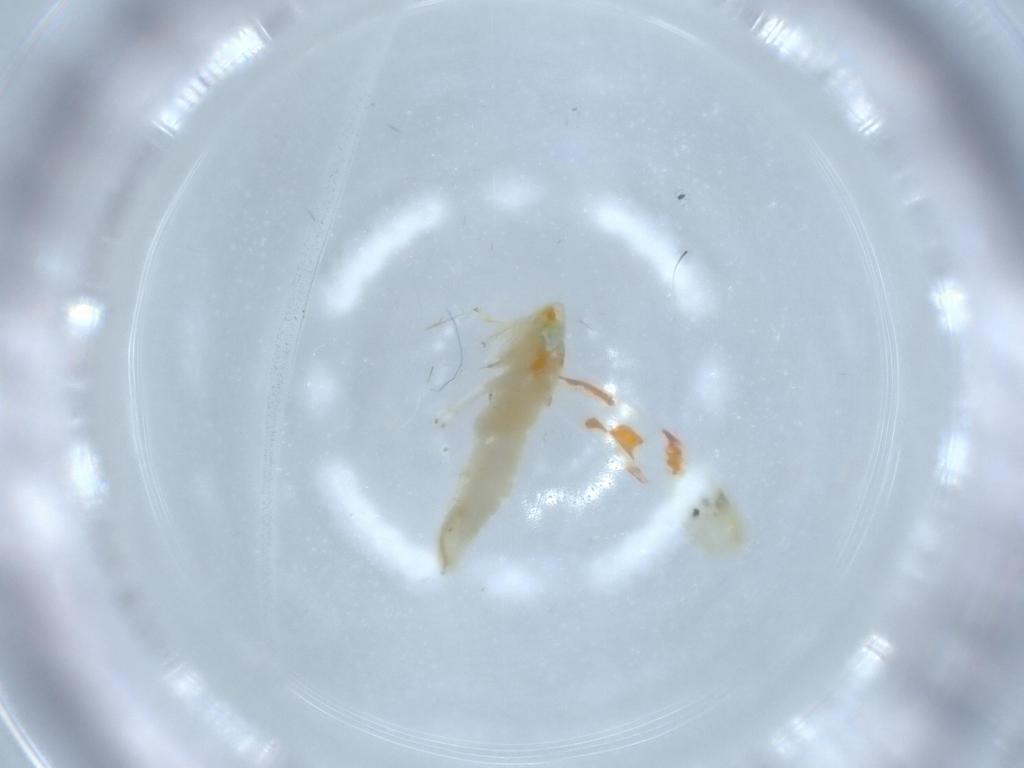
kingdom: Animalia
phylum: Arthropoda
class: Insecta
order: Hemiptera
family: Cicadellidae
